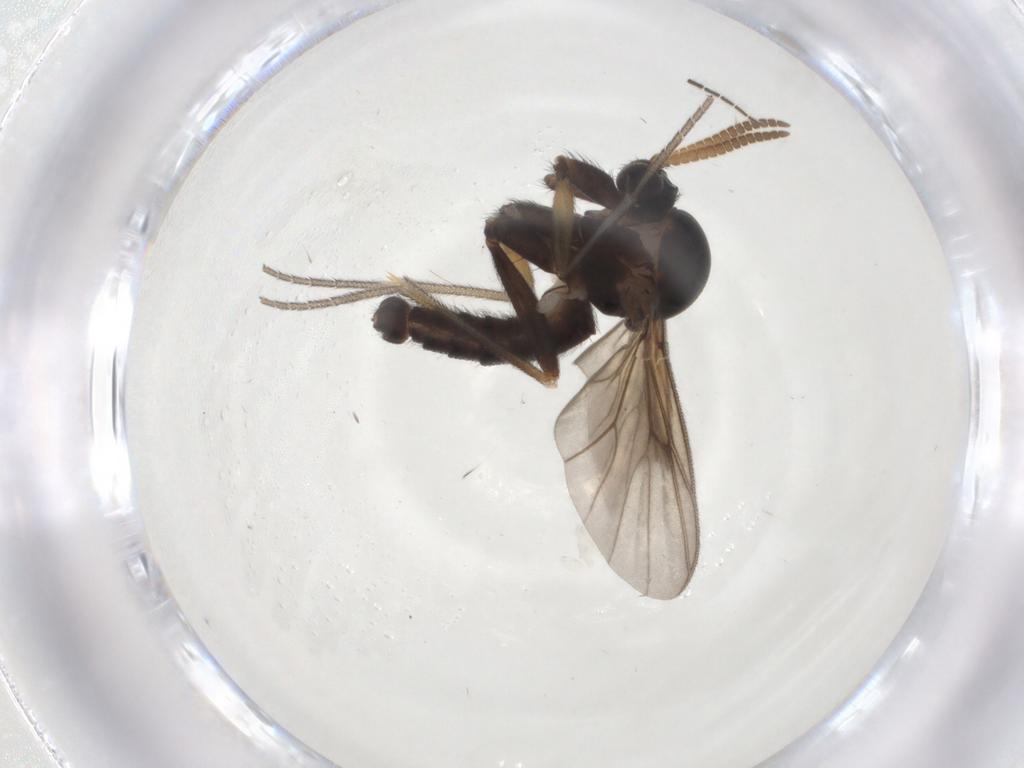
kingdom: Animalia
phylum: Arthropoda
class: Insecta
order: Diptera
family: Mycetophilidae
